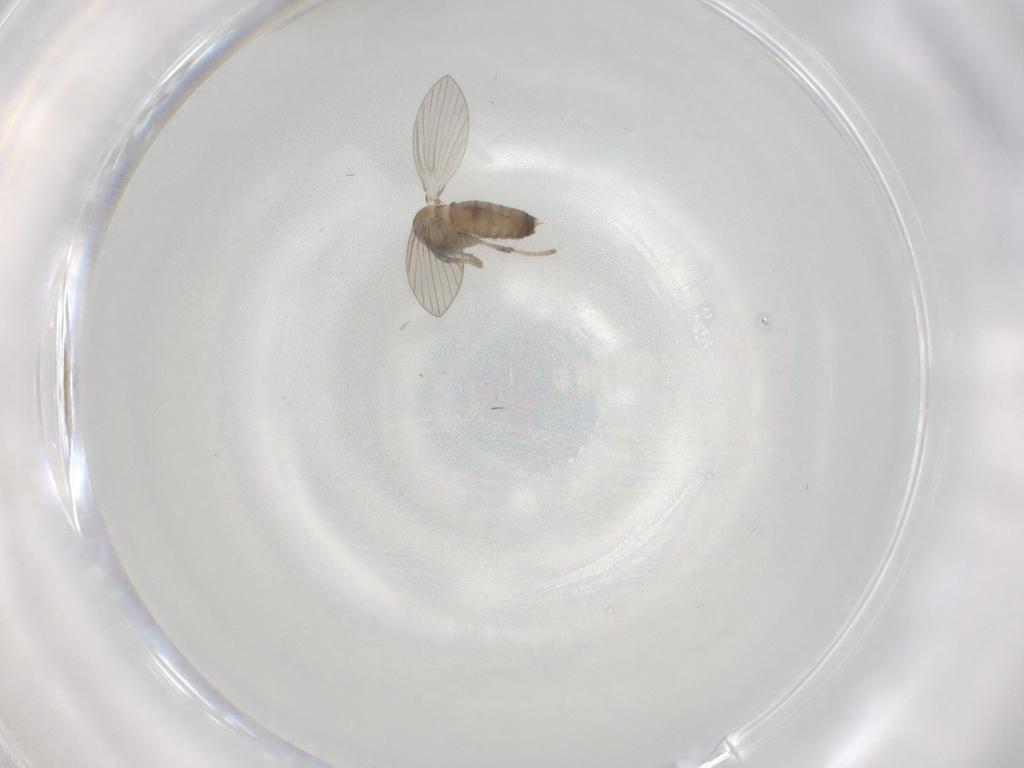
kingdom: Animalia
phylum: Arthropoda
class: Insecta
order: Diptera
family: Psychodidae
